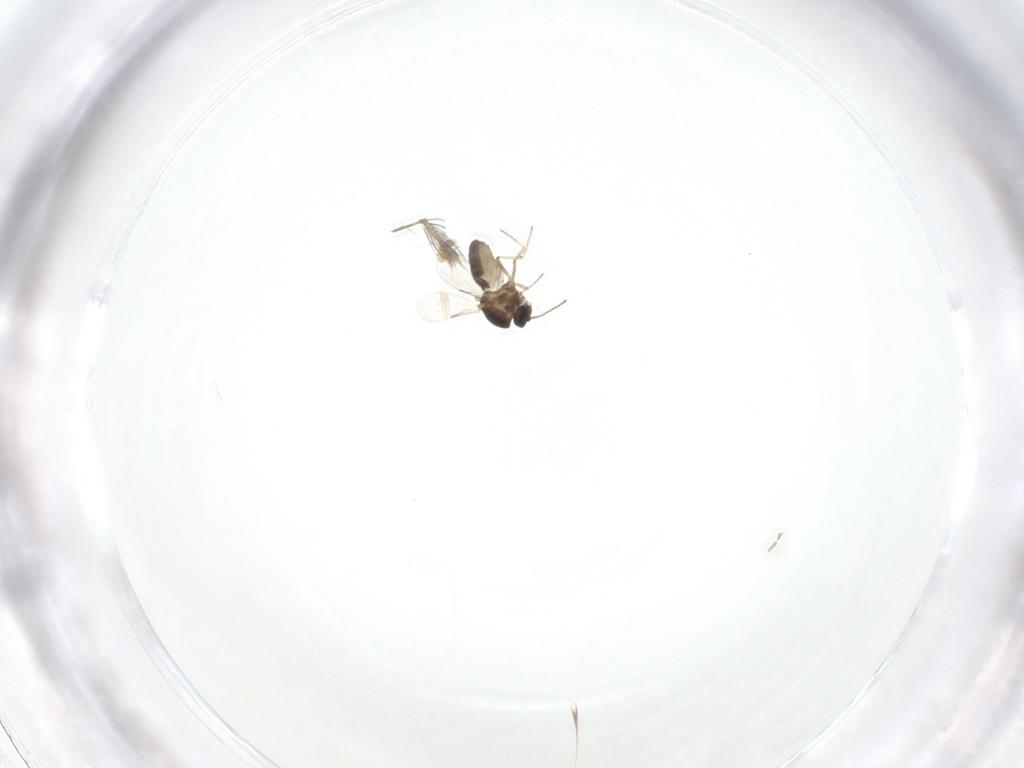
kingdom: Animalia
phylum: Arthropoda
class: Insecta
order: Diptera
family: Ceratopogonidae
